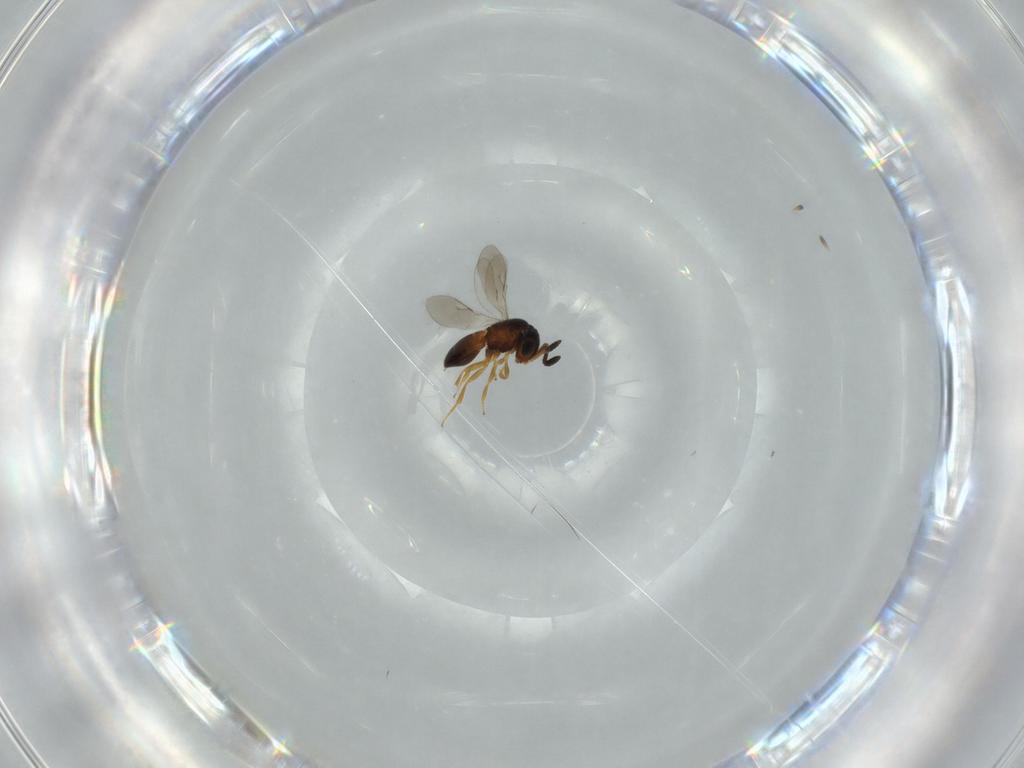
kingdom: Animalia
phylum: Arthropoda
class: Insecta
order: Hymenoptera
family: Scelionidae
